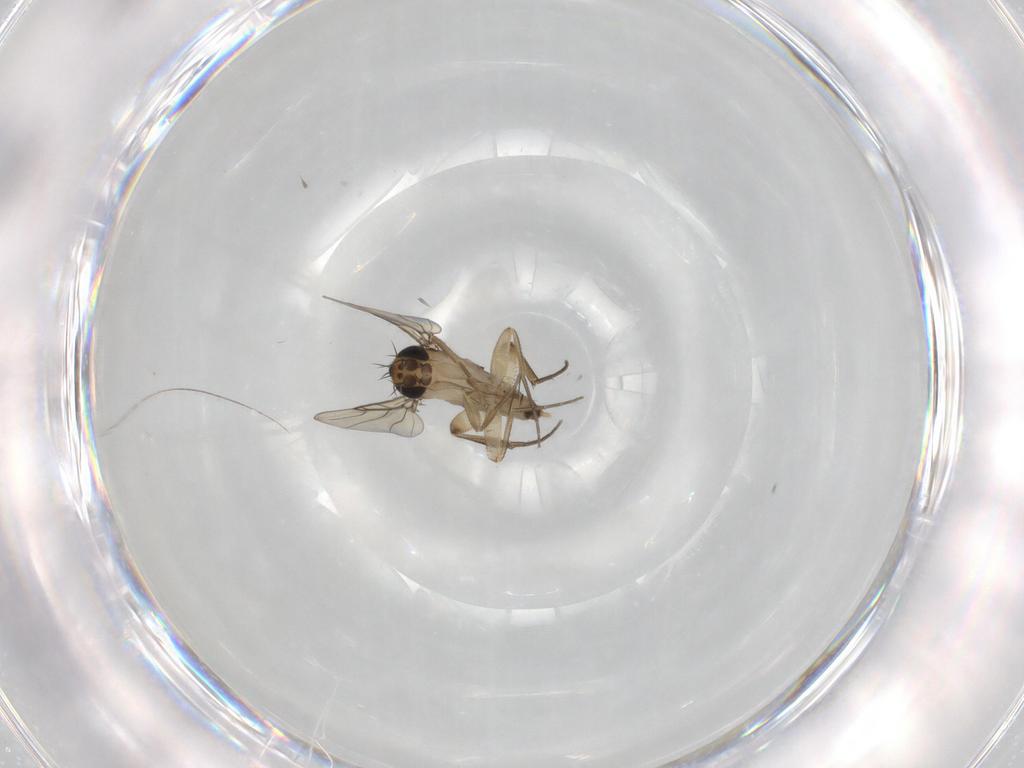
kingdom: Animalia
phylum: Arthropoda
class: Insecta
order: Diptera
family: Phoridae
